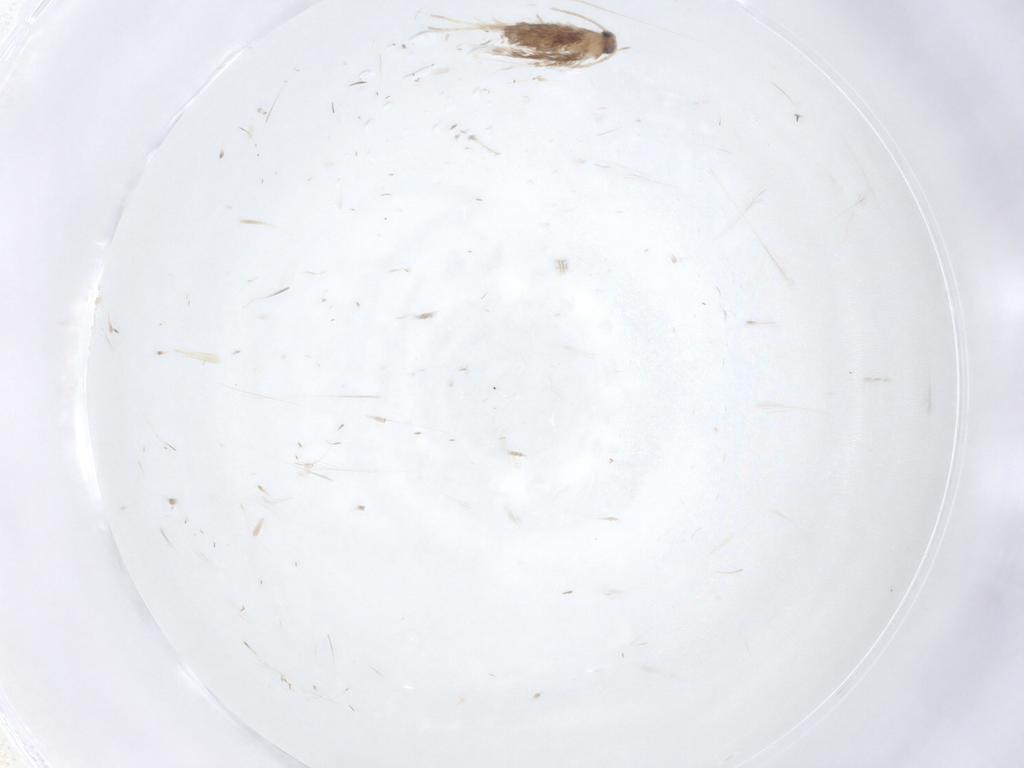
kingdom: Animalia
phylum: Arthropoda
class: Insecta
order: Lepidoptera
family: Nepticulidae
